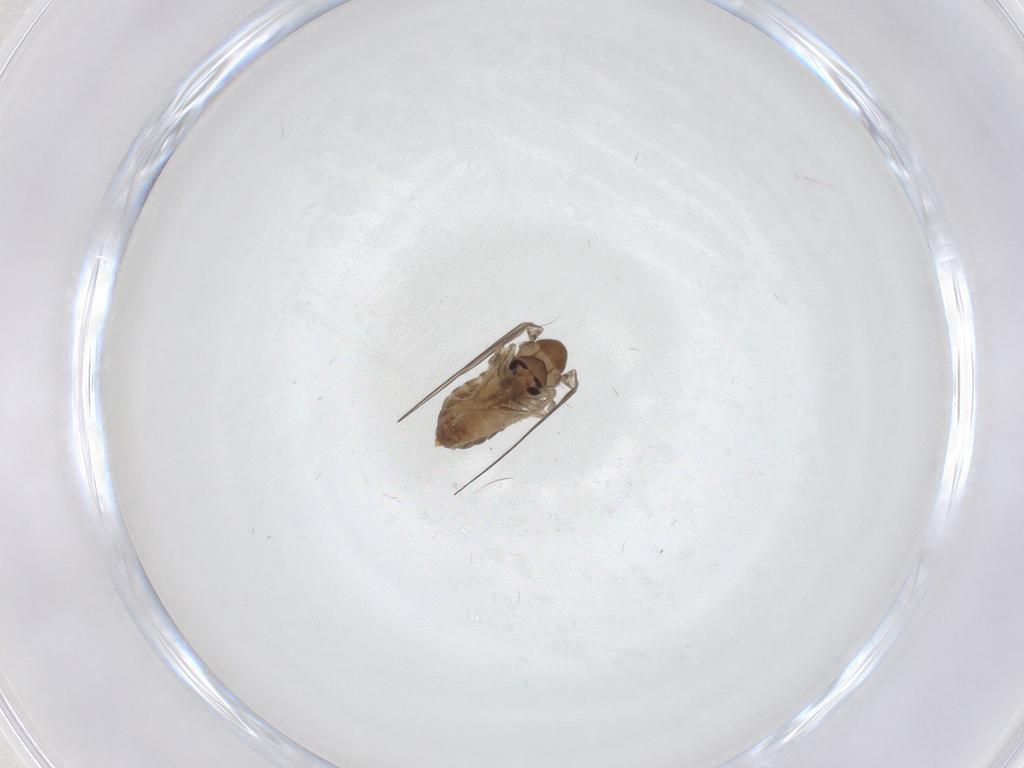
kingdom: Animalia
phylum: Arthropoda
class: Insecta
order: Diptera
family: Psychodidae
